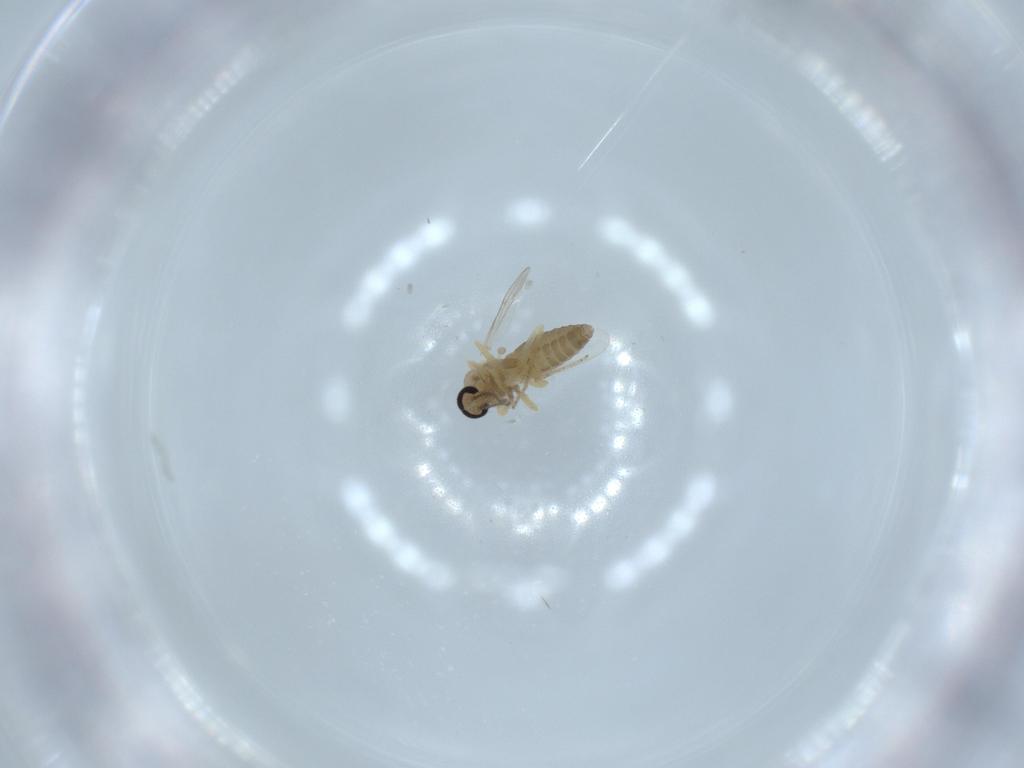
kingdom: Animalia
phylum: Arthropoda
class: Insecta
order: Diptera
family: Ceratopogonidae
